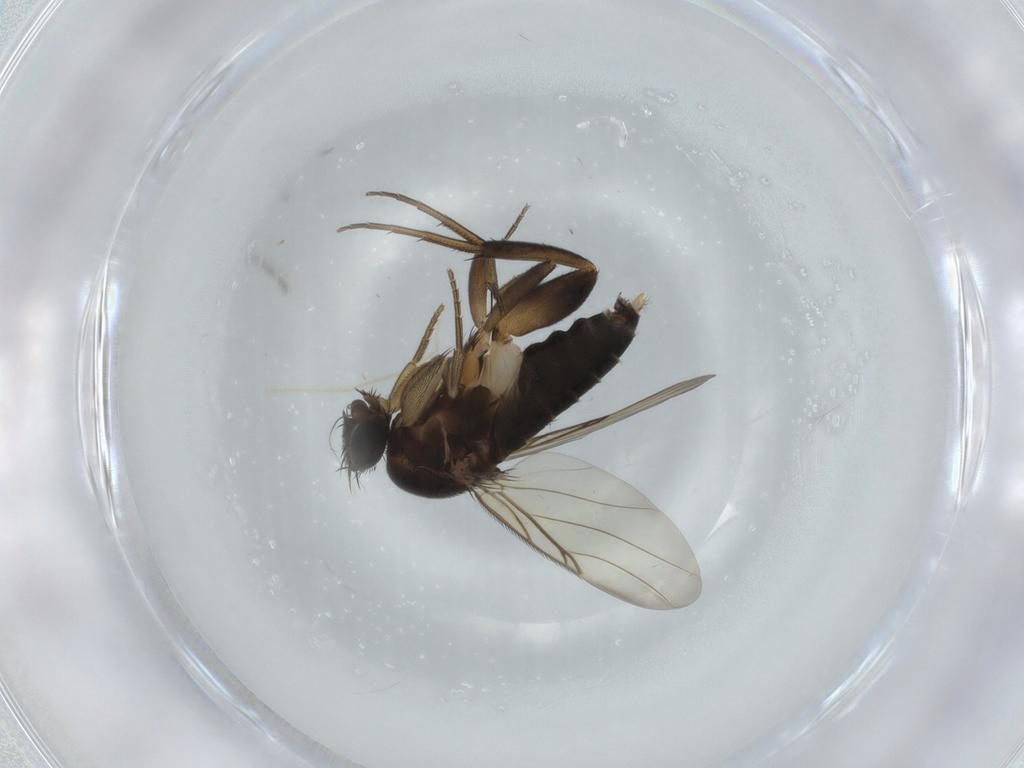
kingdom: Animalia
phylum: Arthropoda
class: Insecta
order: Diptera
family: Phoridae
